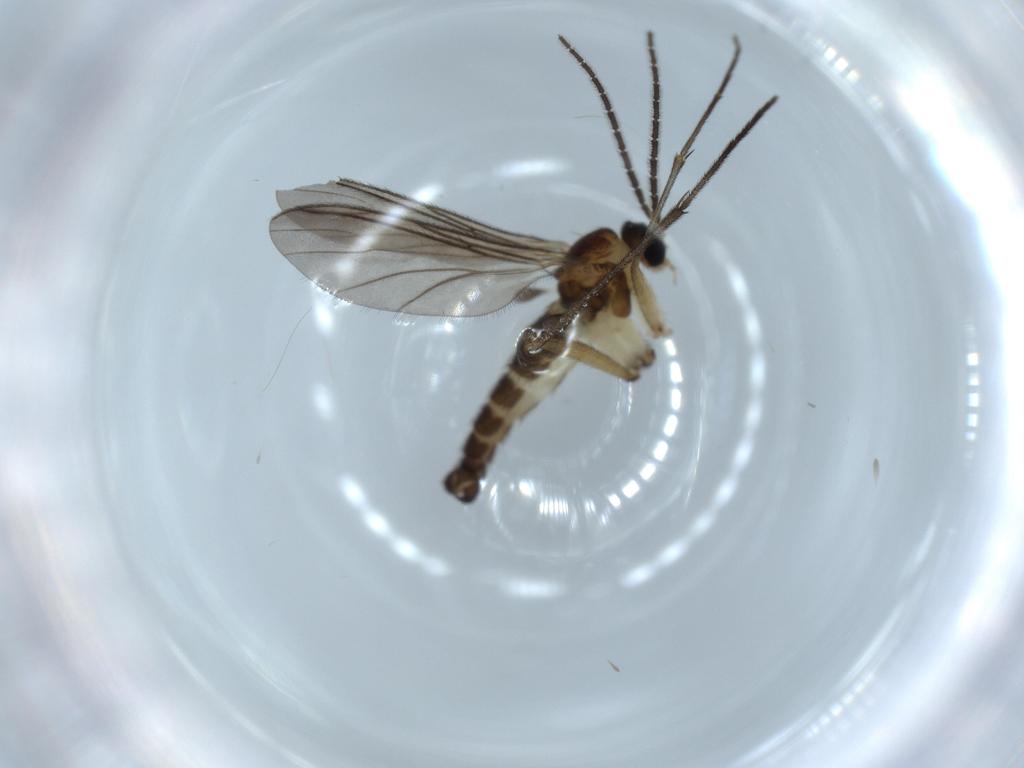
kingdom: Animalia
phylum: Arthropoda
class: Insecta
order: Diptera
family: Sciaridae
